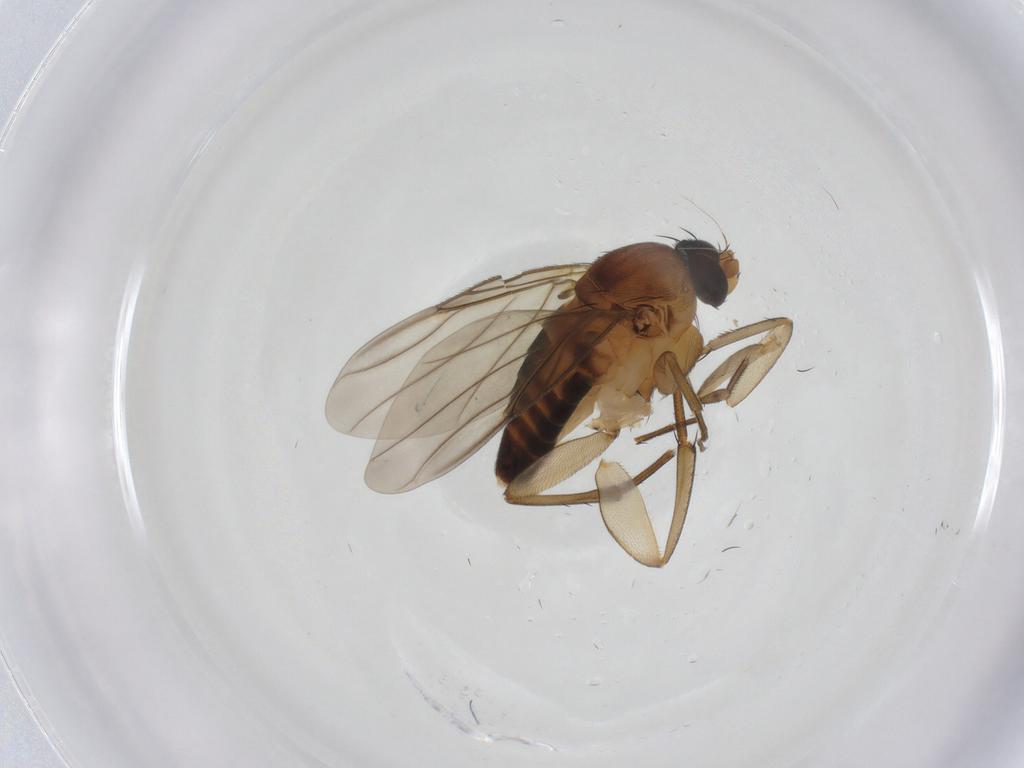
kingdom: Animalia
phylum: Arthropoda
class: Insecta
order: Diptera
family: Phoridae
